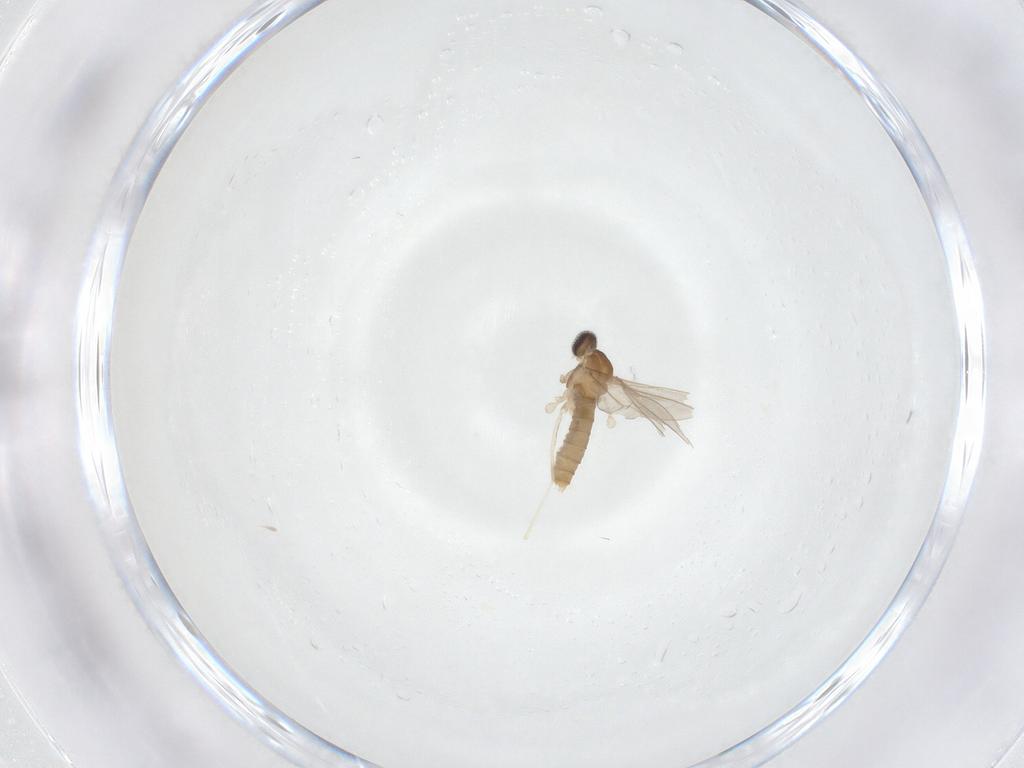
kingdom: Animalia
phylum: Arthropoda
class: Insecta
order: Diptera
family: Cecidomyiidae
